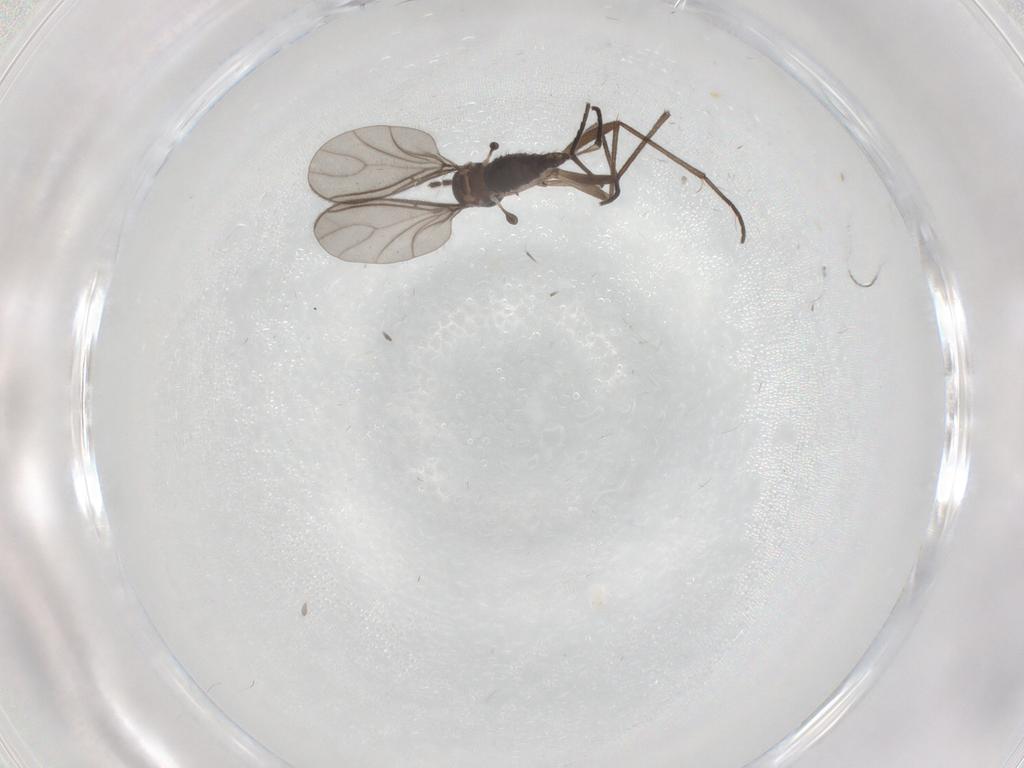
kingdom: Animalia
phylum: Arthropoda
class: Insecta
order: Diptera
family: Sciaridae
